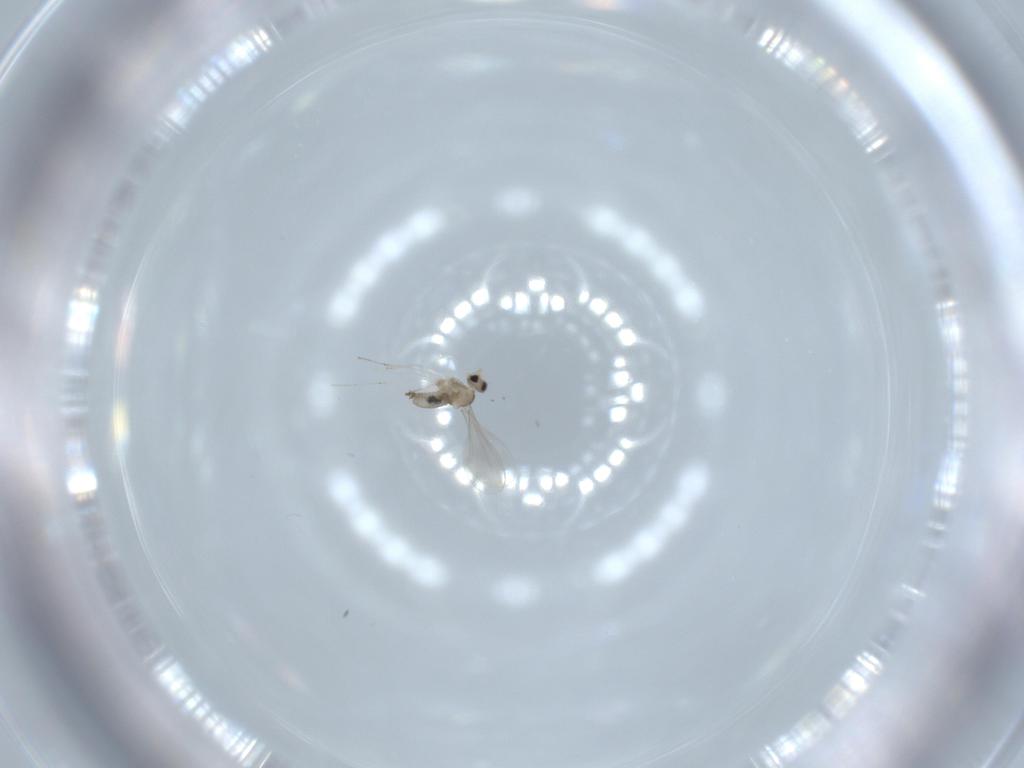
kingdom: Animalia
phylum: Arthropoda
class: Insecta
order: Diptera
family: Cecidomyiidae
